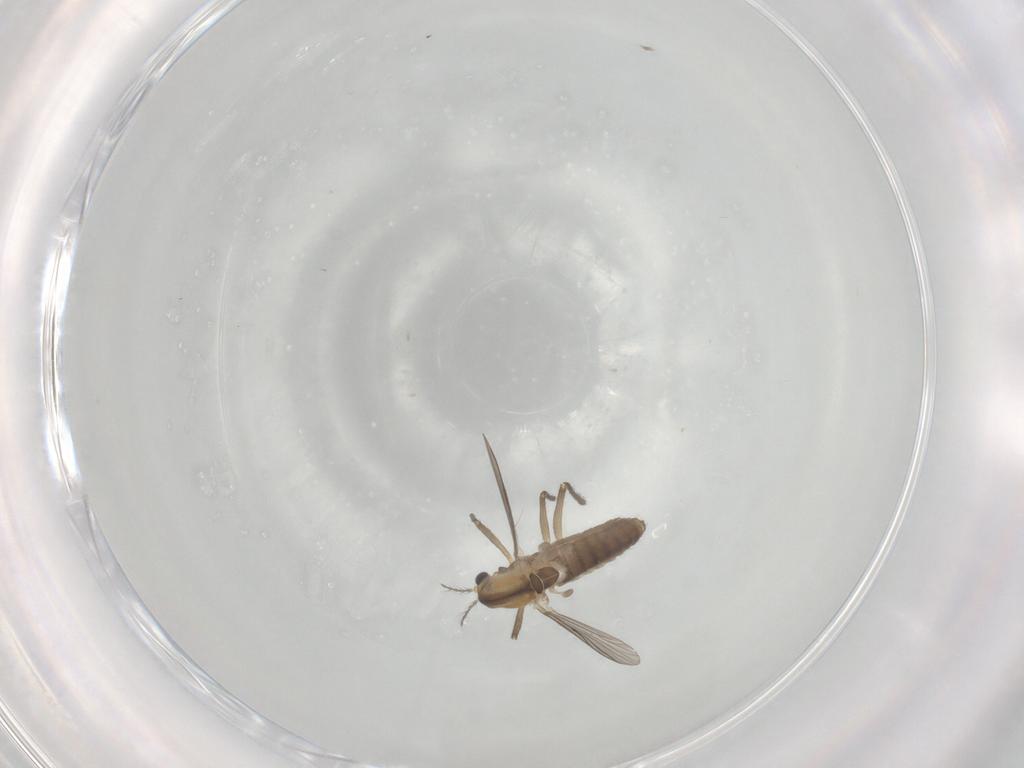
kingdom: Animalia
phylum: Arthropoda
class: Insecta
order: Diptera
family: Chironomidae
